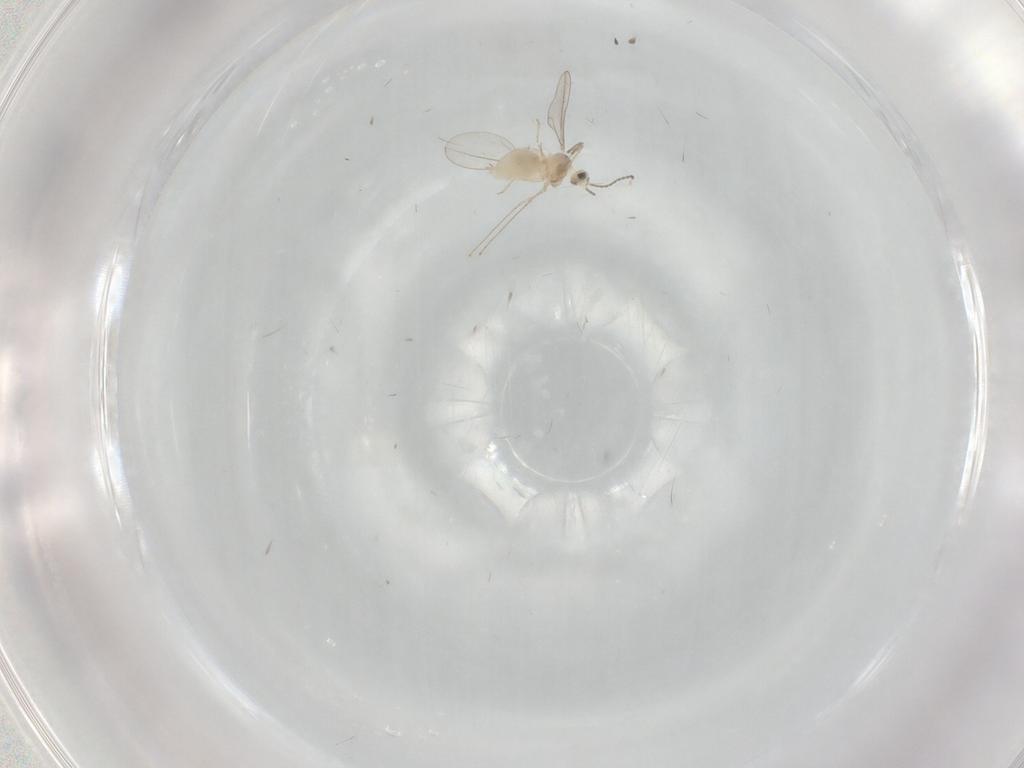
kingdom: Animalia
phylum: Arthropoda
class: Insecta
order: Diptera
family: Cecidomyiidae
